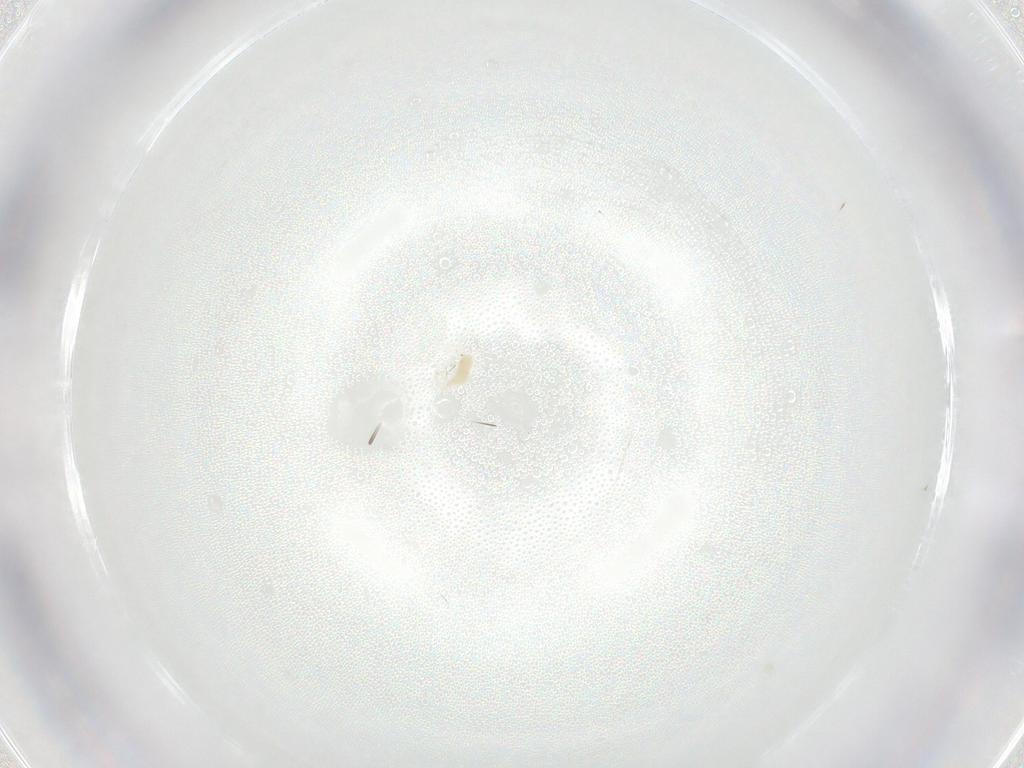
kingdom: Animalia
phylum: Arthropoda
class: Arachnida
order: Trombidiformes
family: Tetranychidae
